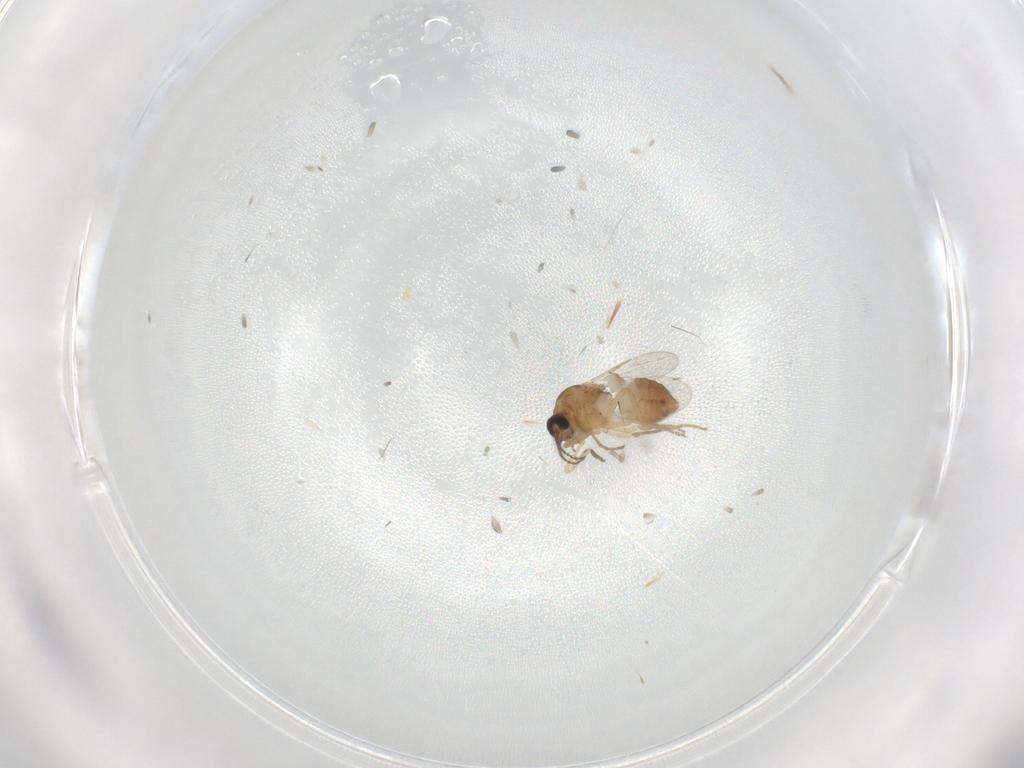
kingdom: Animalia
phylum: Arthropoda
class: Insecta
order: Diptera
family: Ceratopogonidae
